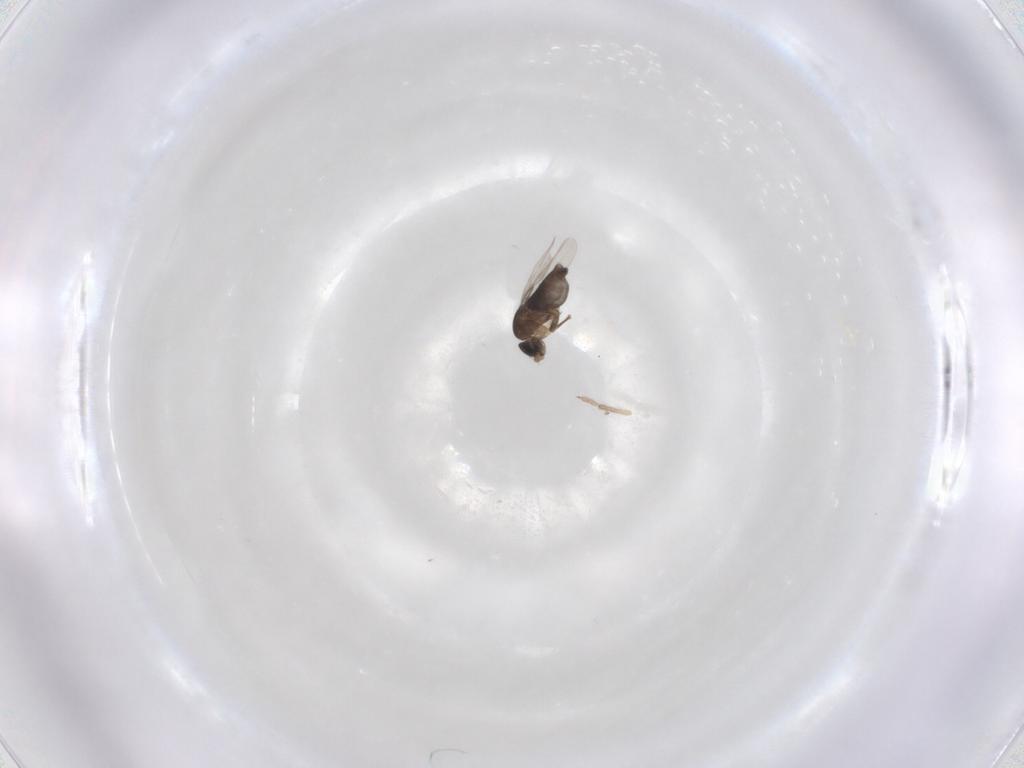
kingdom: Animalia
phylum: Arthropoda
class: Insecta
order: Diptera
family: Phoridae
